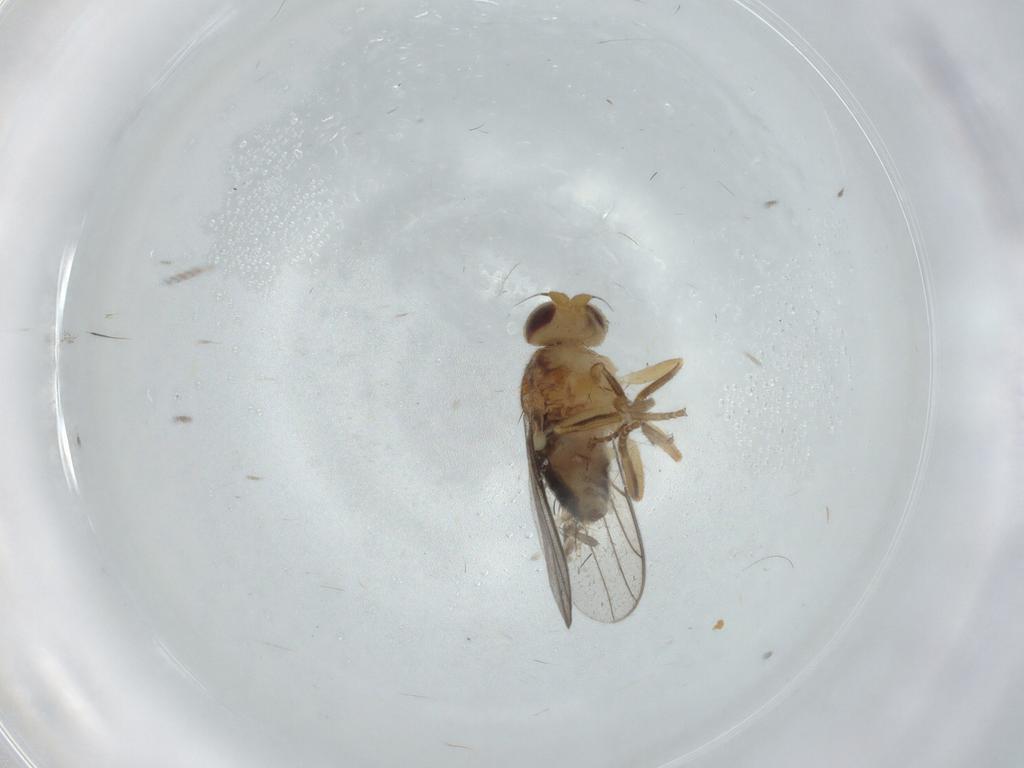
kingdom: Animalia
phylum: Arthropoda
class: Insecta
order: Diptera
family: Chloropidae
